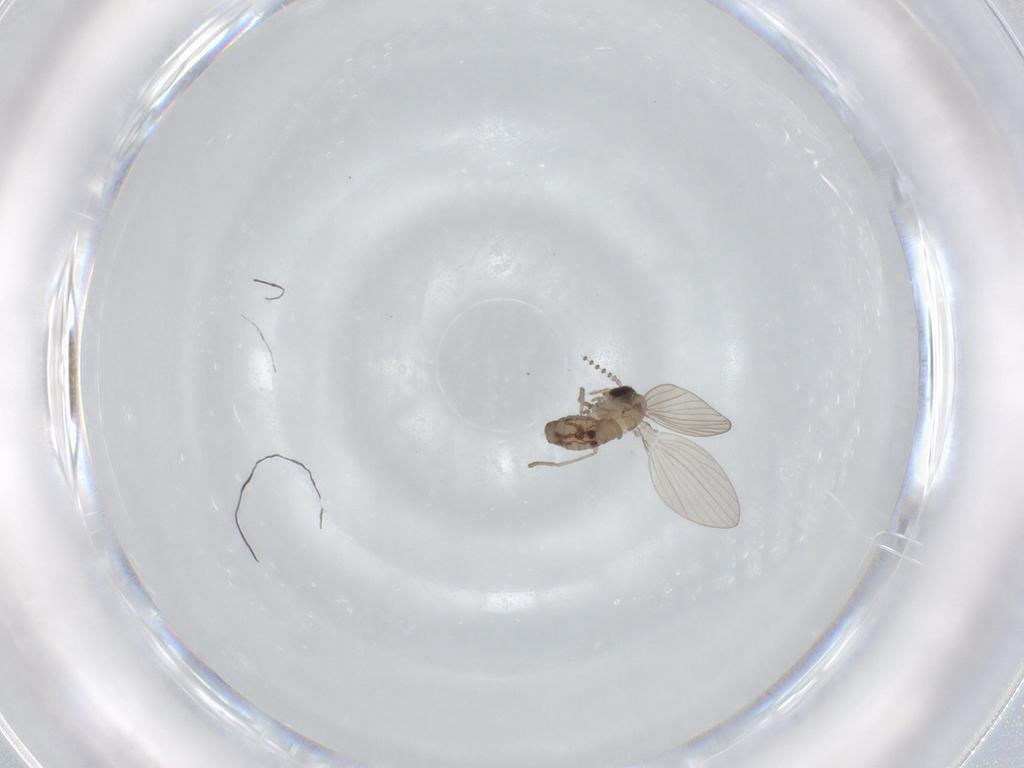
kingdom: Animalia
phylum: Arthropoda
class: Insecta
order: Diptera
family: Psychodidae
